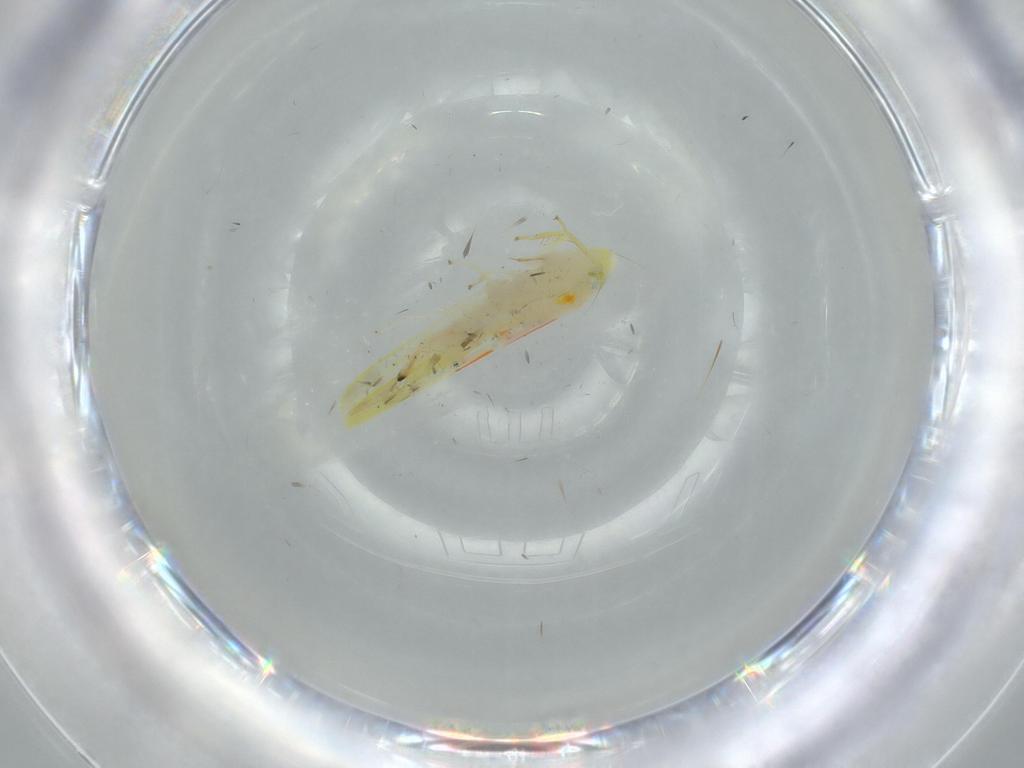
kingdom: Animalia
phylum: Arthropoda
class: Insecta
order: Hemiptera
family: Cicadellidae
